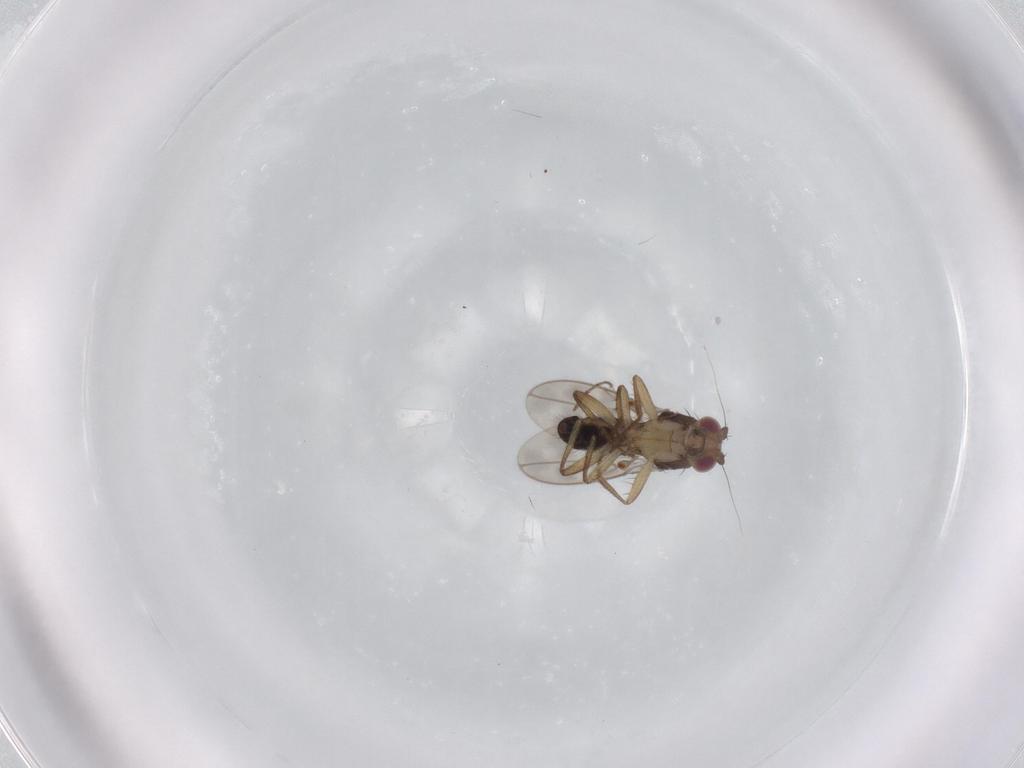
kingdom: Animalia
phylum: Arthropoda
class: Insecta
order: Diptera
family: Sphaeroceridae
